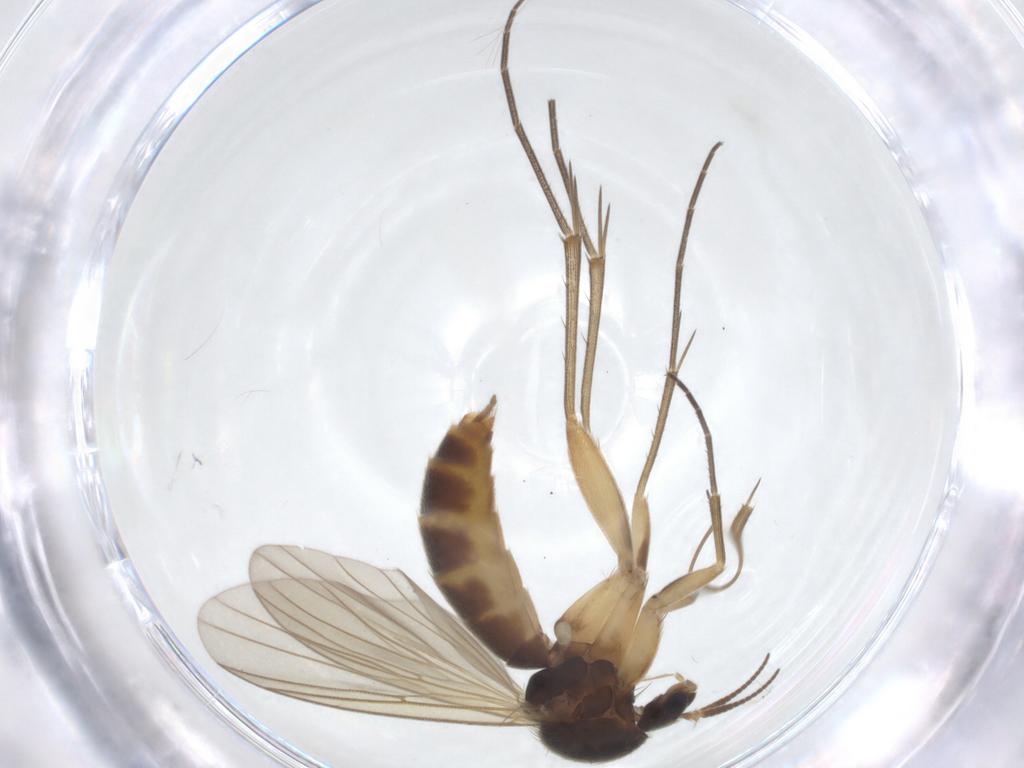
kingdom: Animalia
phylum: Arthropoda
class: Insecta
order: Diptera
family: Mycetophilidae
